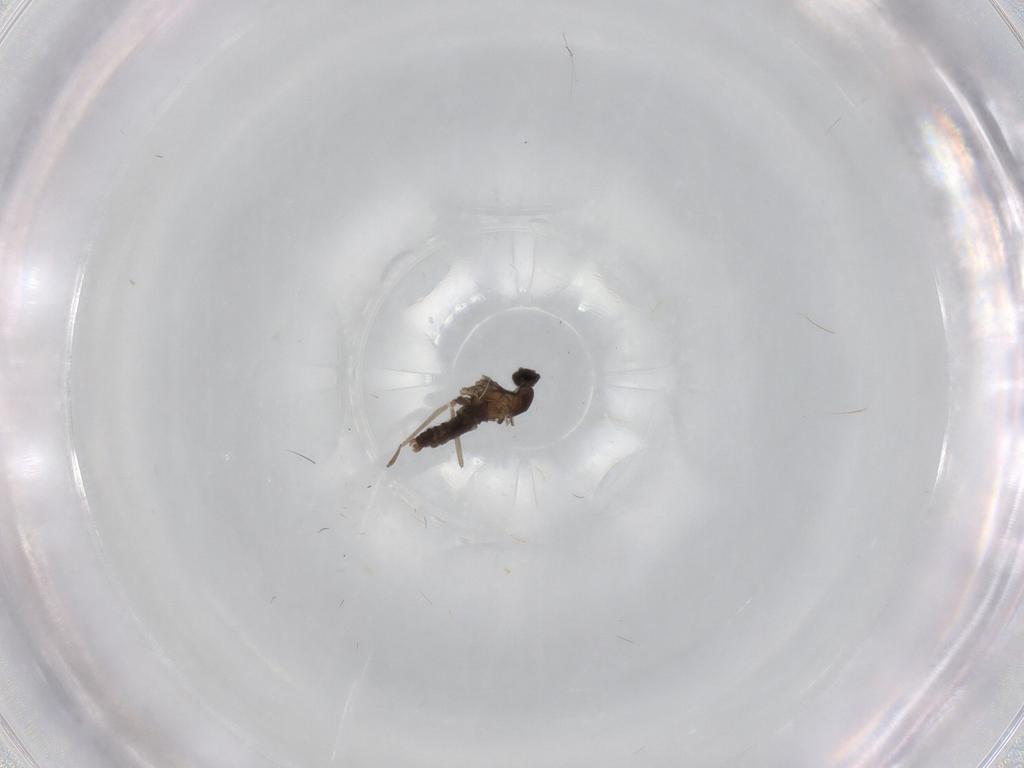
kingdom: Animalia
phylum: Arthropoda
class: Insecta
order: Diptera
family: Cecidomyiidae
